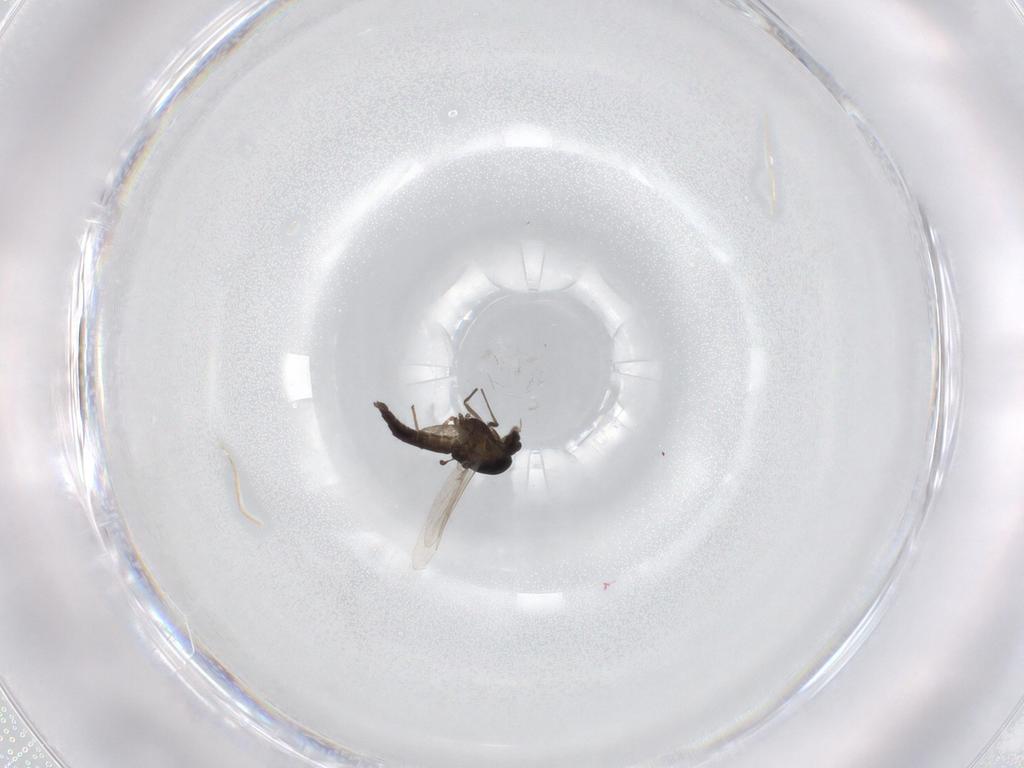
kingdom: Animalia
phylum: Arthropoda
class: Insecta
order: Diptera
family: Chironomidae
